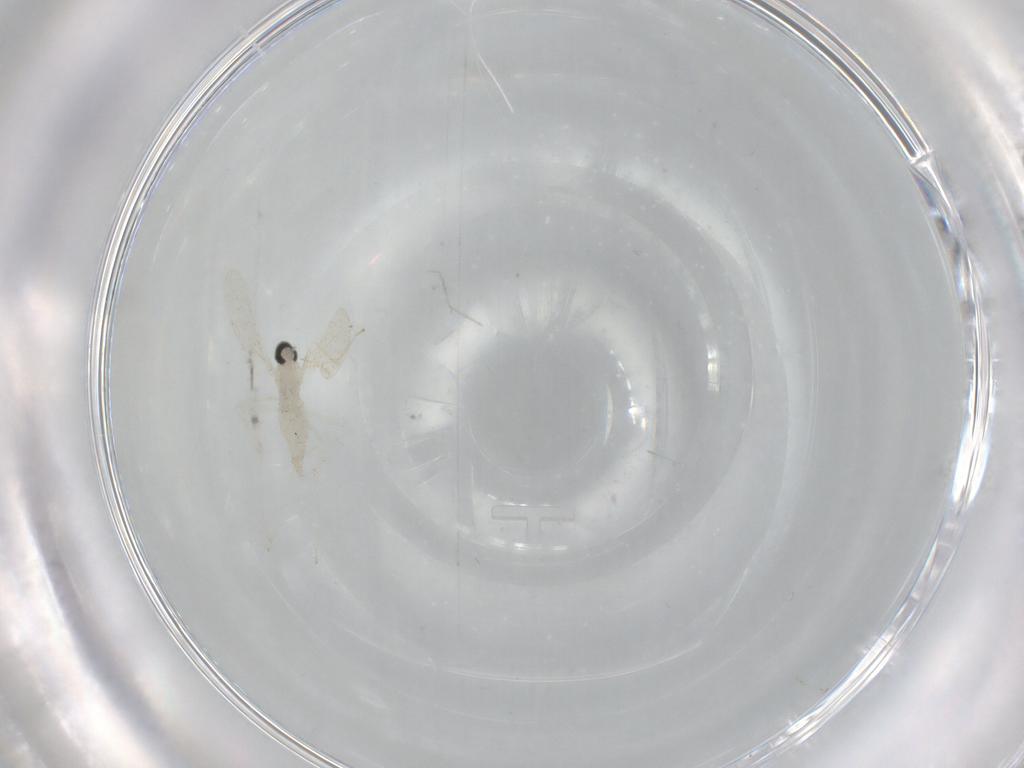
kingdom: Animalia
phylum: Arthropoda
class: Insecta
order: Diptera
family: Cecidomyiidae
